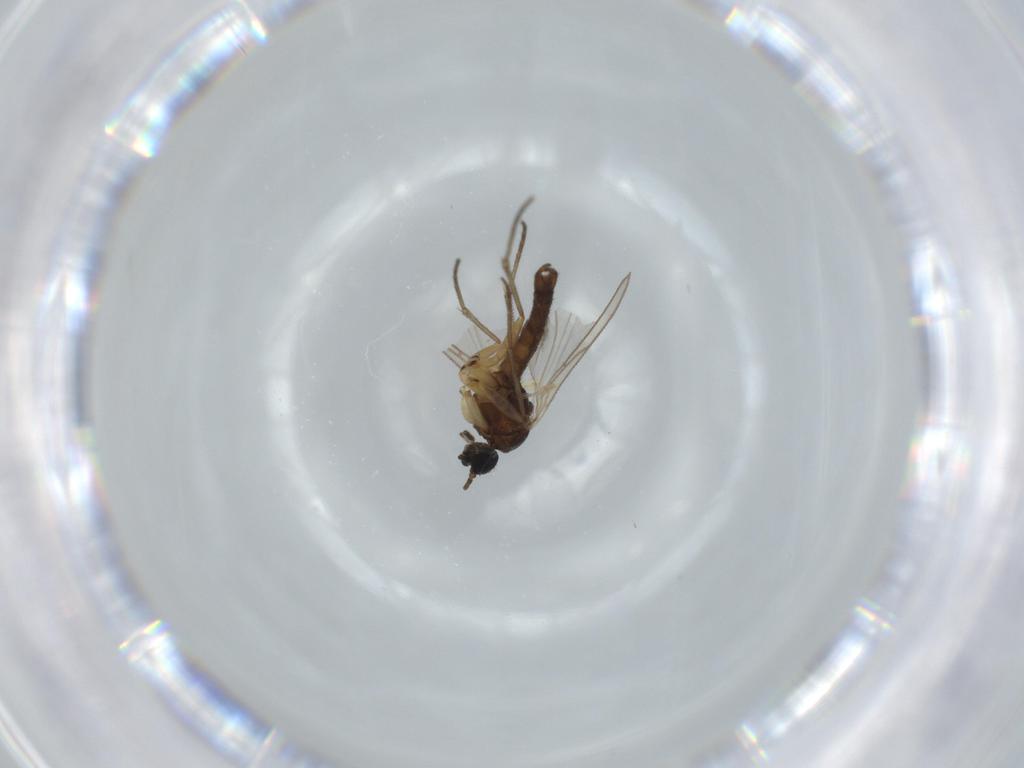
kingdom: Animalia
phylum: Arthropoda
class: Insecta
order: Diptera
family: Sciaridae
